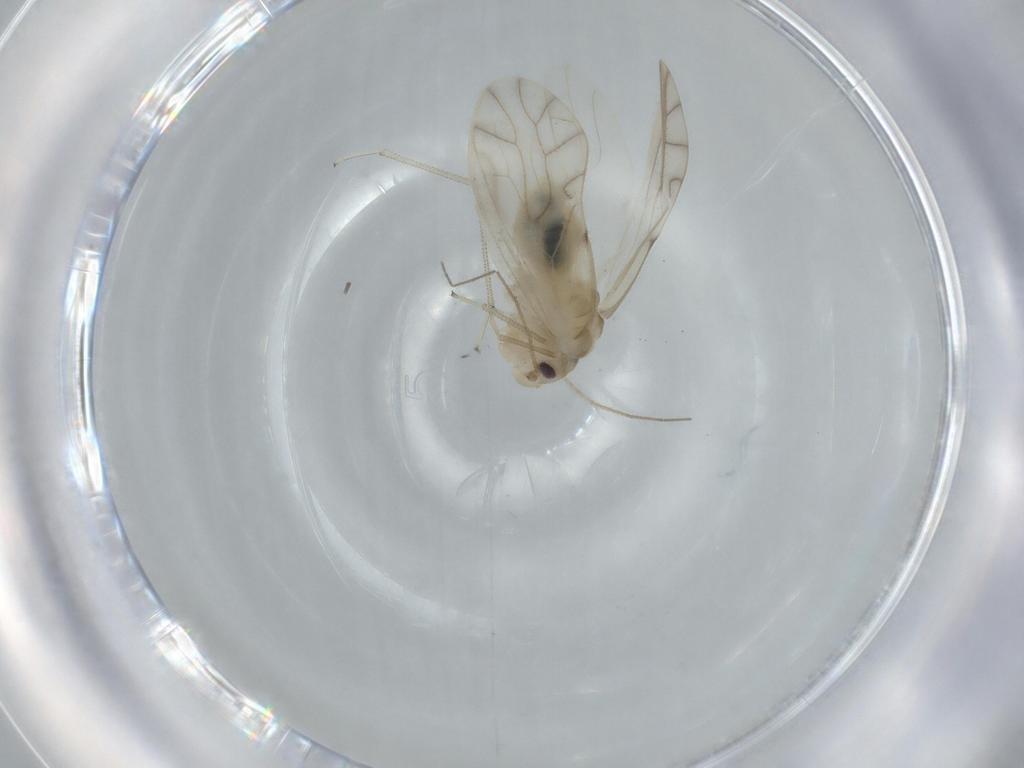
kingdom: Animalia
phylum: Arthropoda
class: Insecta
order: Psocodea
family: Caeciliusidae
